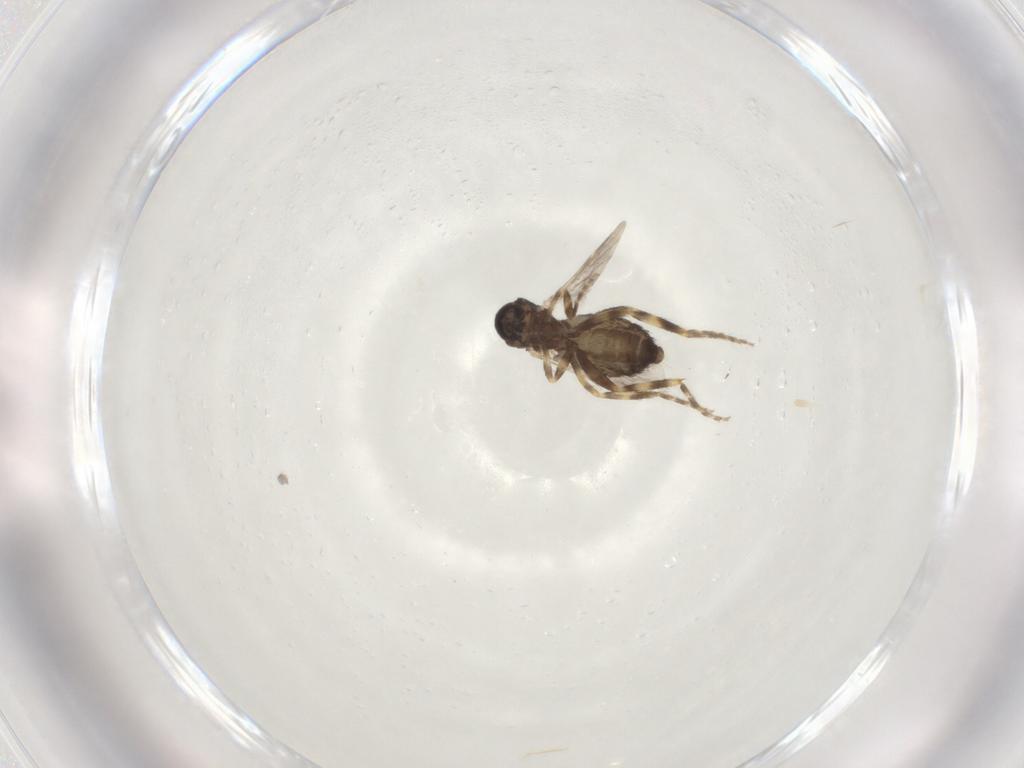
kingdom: Animalia
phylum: Arthropoda
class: Insecta
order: Diptera
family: Ceratopogonidae
